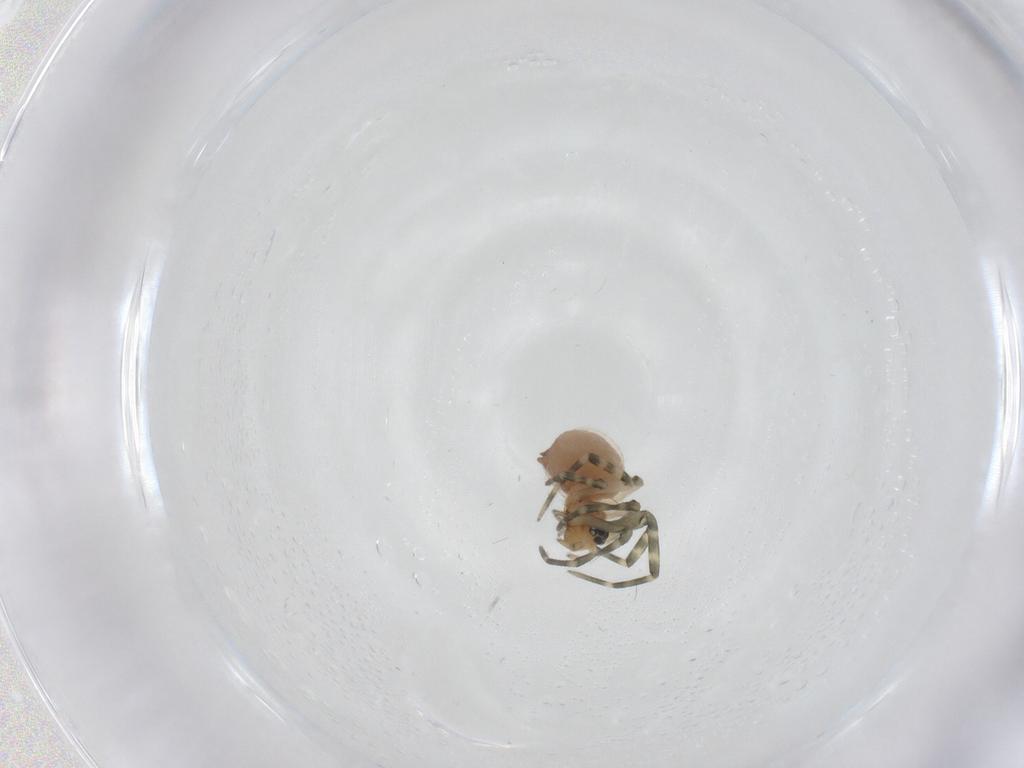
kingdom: Animalia
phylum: Arthropoda
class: Arachnida
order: Araneae
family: Linyphiidae
